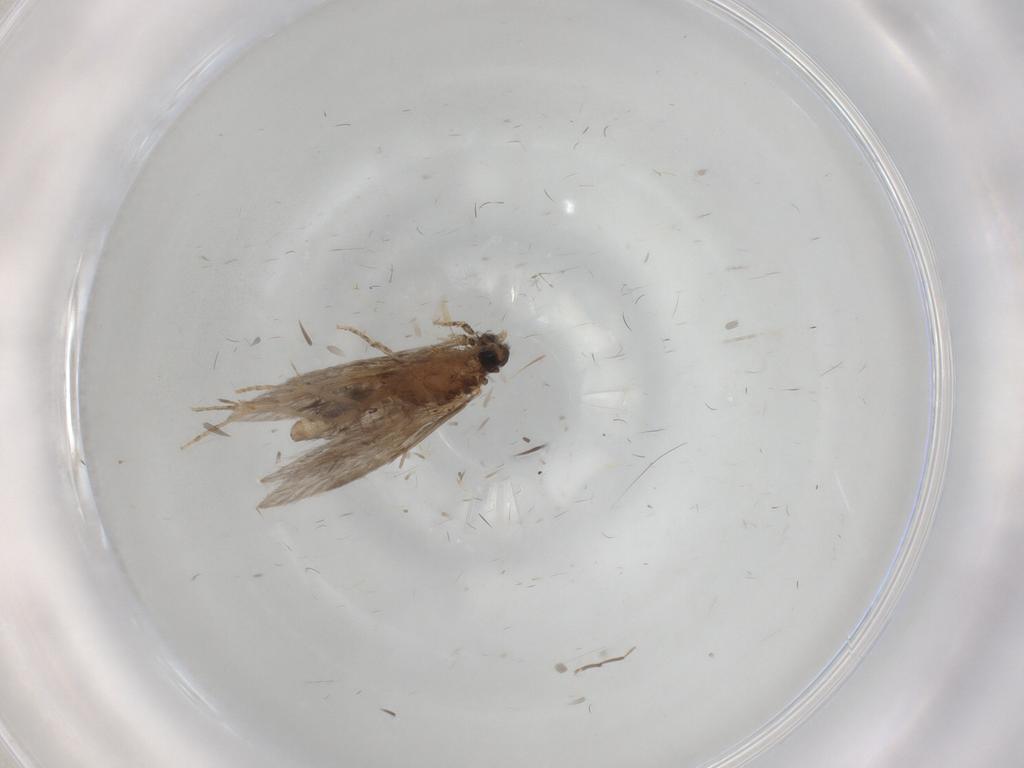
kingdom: Animalia
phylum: Arthropoda
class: Insecta
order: Trichoptera
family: Hydroptilidae
